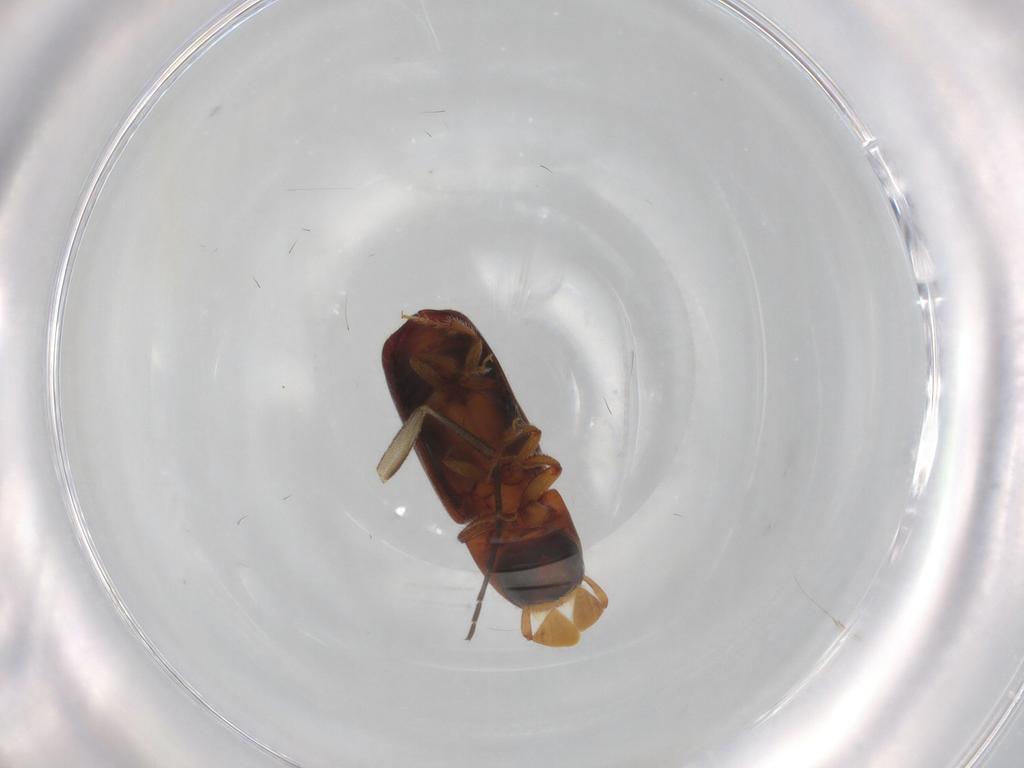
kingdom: Animalia
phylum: Arthropoda
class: Insecta
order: Coleoptera
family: Curculionidae
